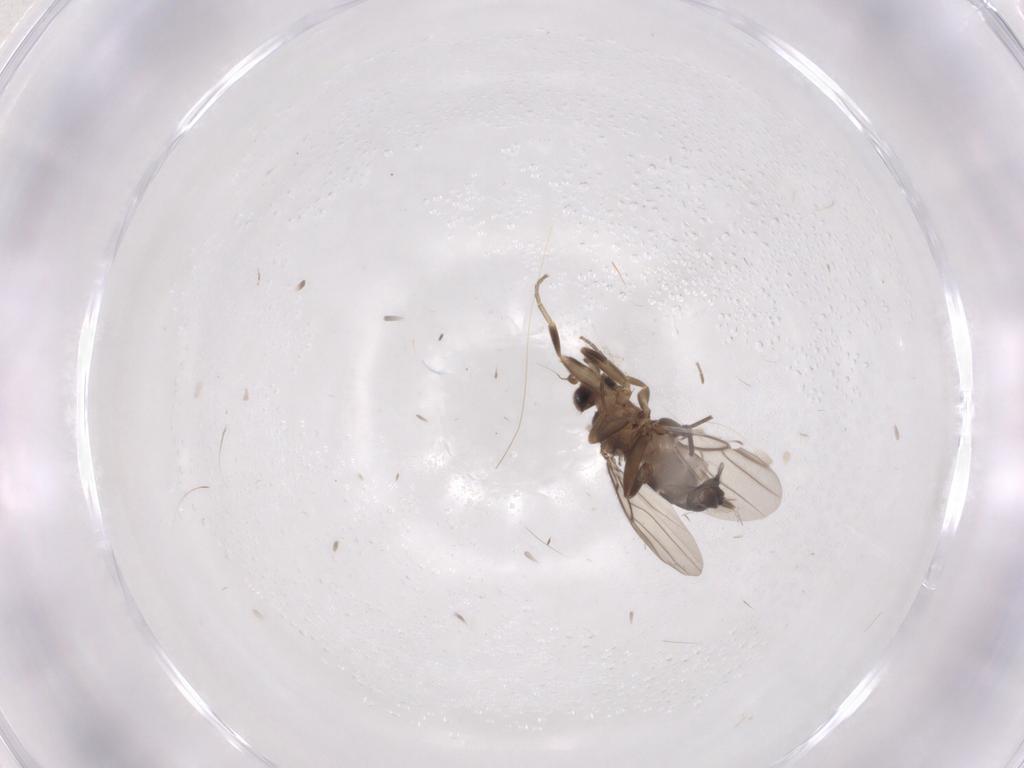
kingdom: Animalia
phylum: Arthropoda
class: Insecta
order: Diptera
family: Phoridae
